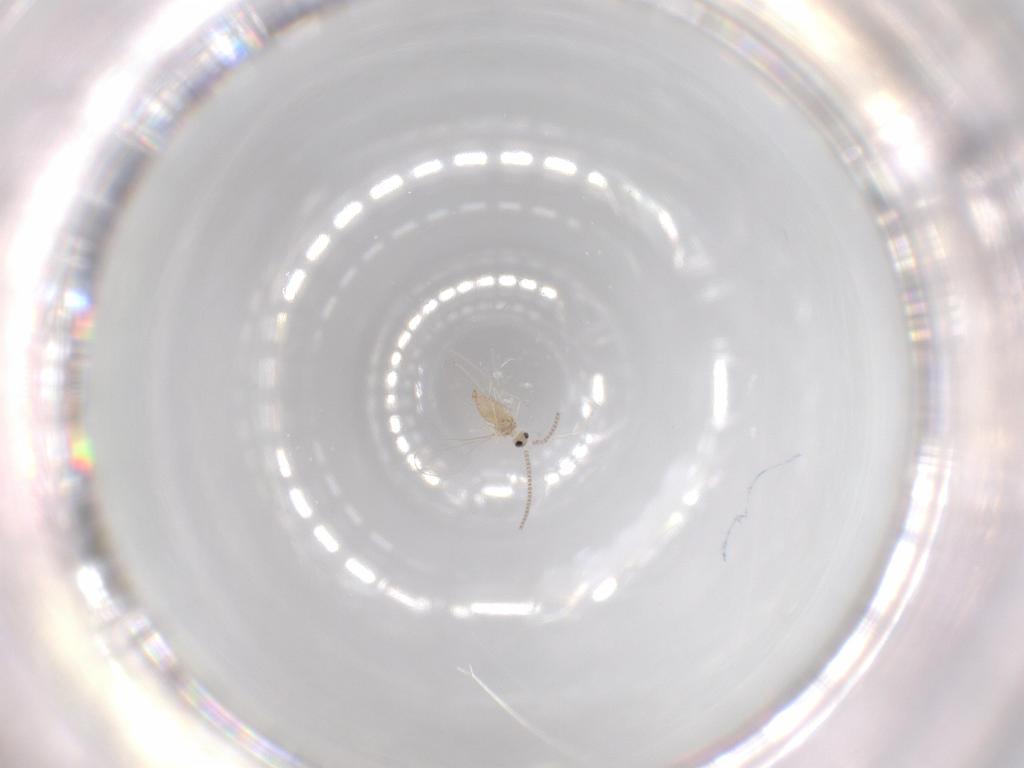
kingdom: Animalia
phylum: Arthropoda
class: Insecta
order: Diptera
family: Cecidomyiidae
